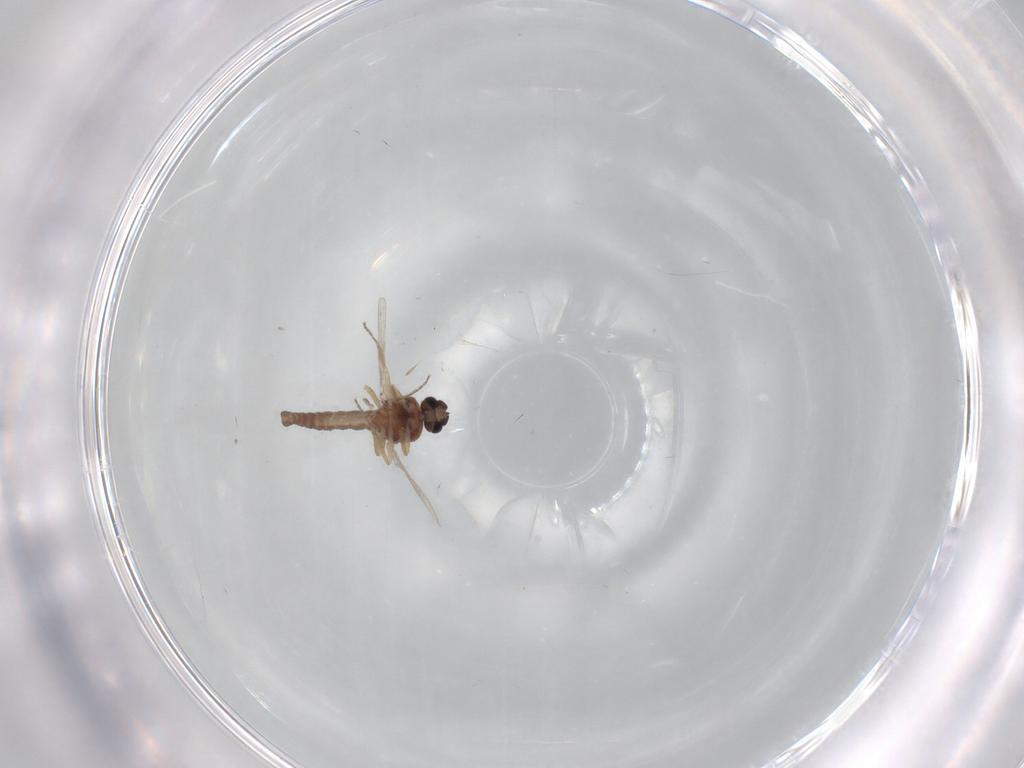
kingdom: Animalia
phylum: Arthropoda
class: Insecta
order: Diptera
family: Ceratopogonidae
